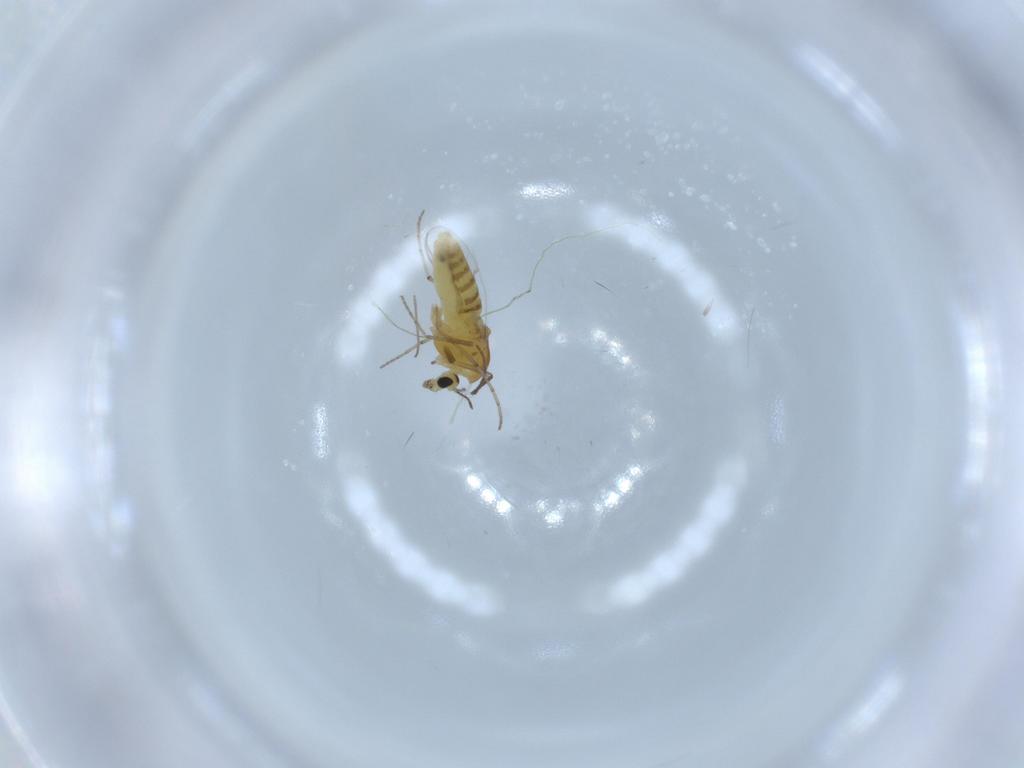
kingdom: Animalia
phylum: Arthropoda
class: Insecta
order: Diptera
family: Chironomidae
